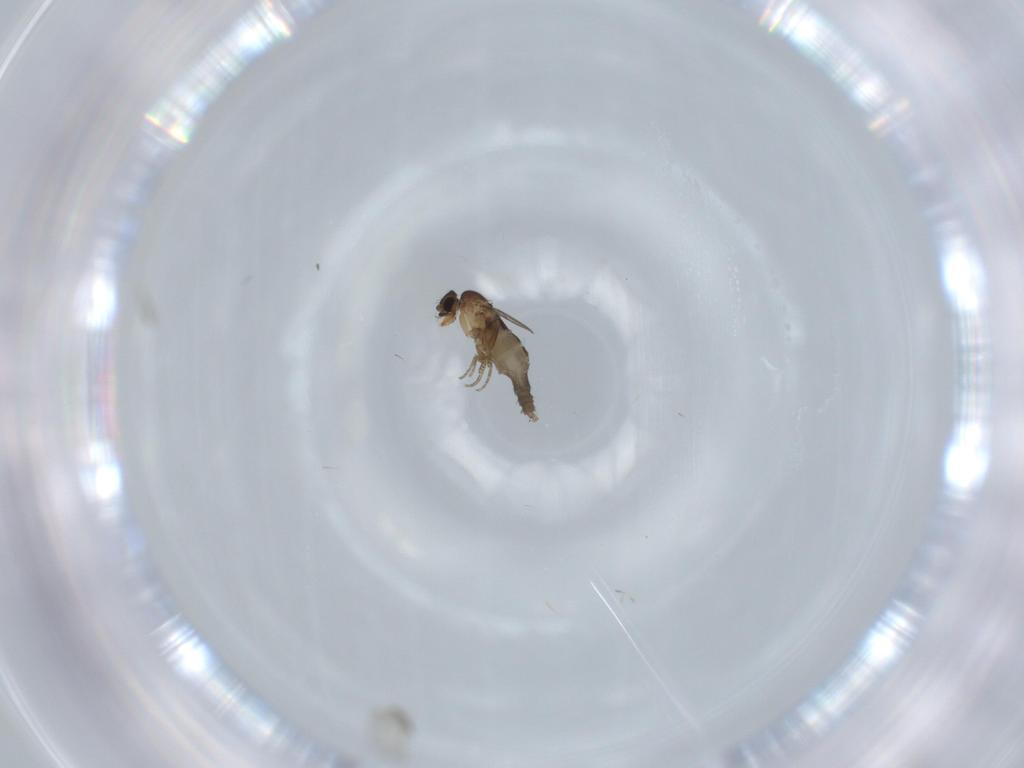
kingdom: Animalia
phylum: Arthropoda
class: Insecta
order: Diptera
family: Phoridae
